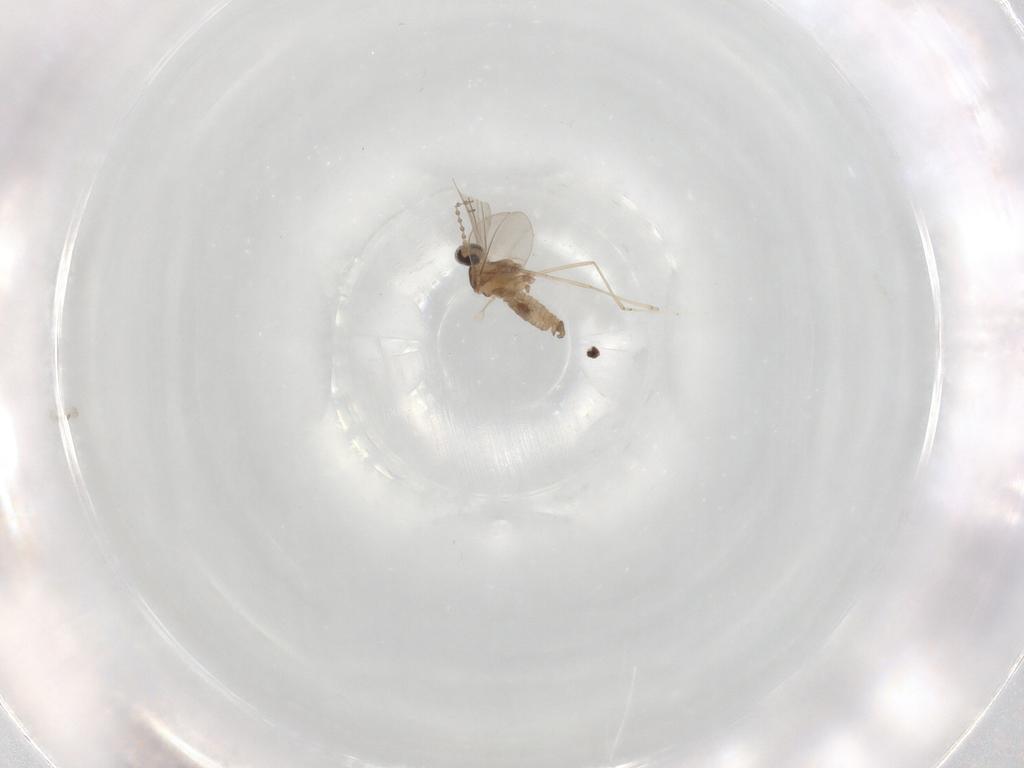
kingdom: Animalia
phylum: Arthropoda
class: Insecta
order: Diptera
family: Cecidomyiidae
